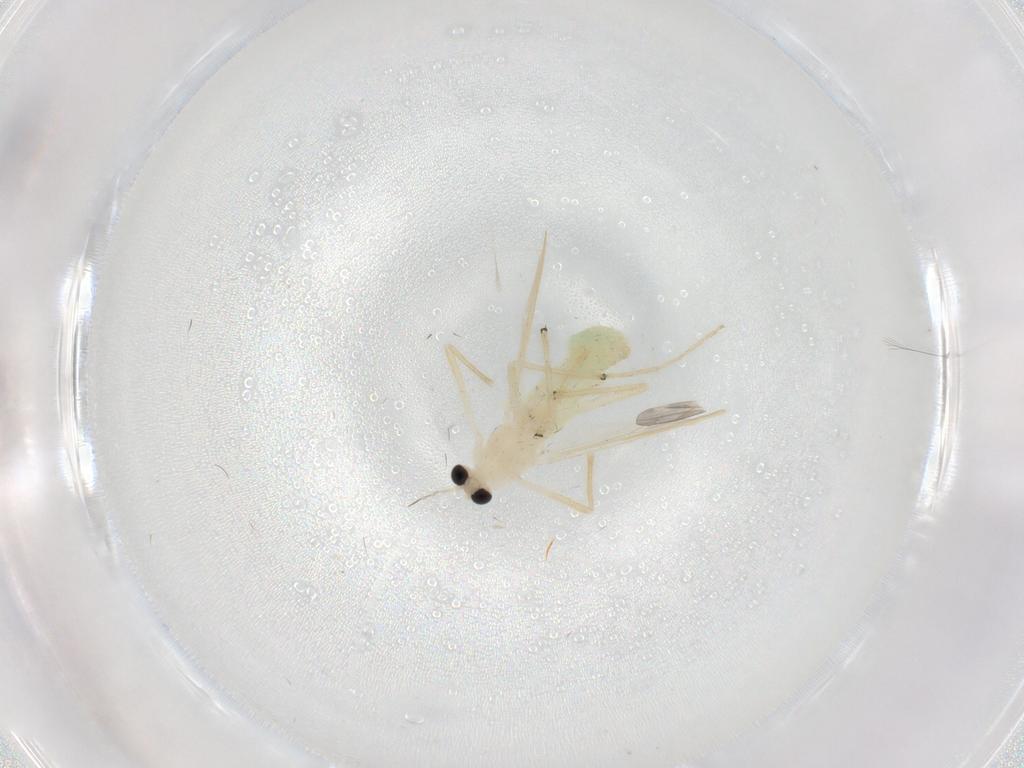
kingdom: Animalia
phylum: Arthropoda
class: Insecta
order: Diptera
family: Chironomidae
